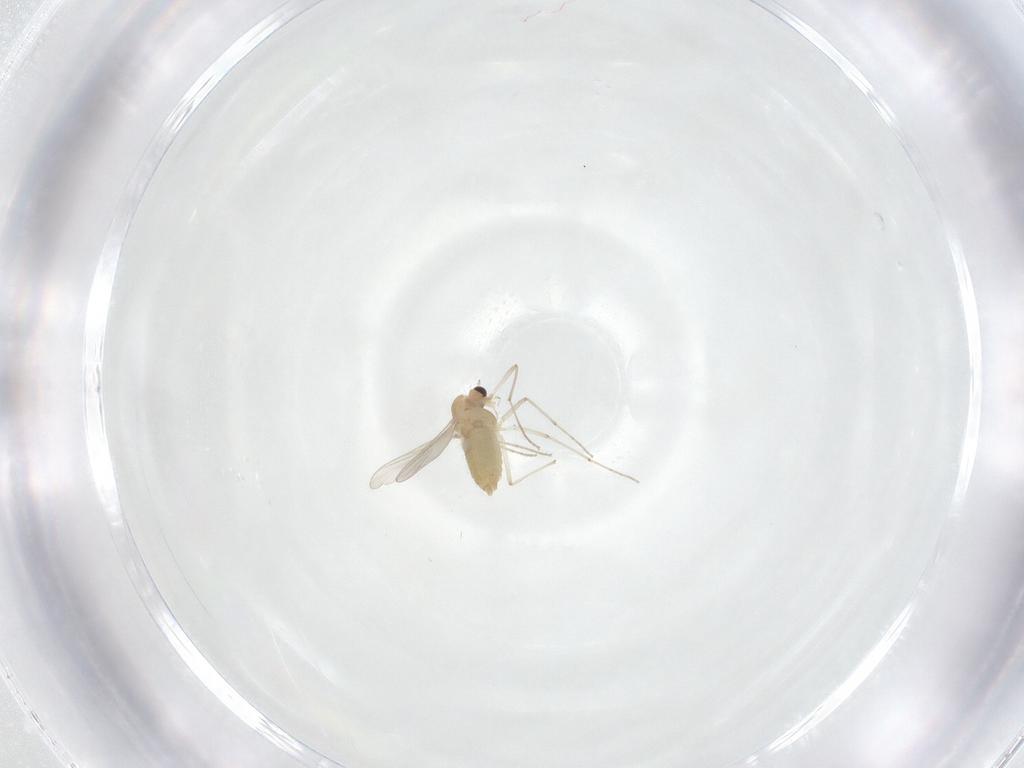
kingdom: Animalia
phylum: Arthropoda
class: Insecta
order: Diptera
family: Chironomidae
